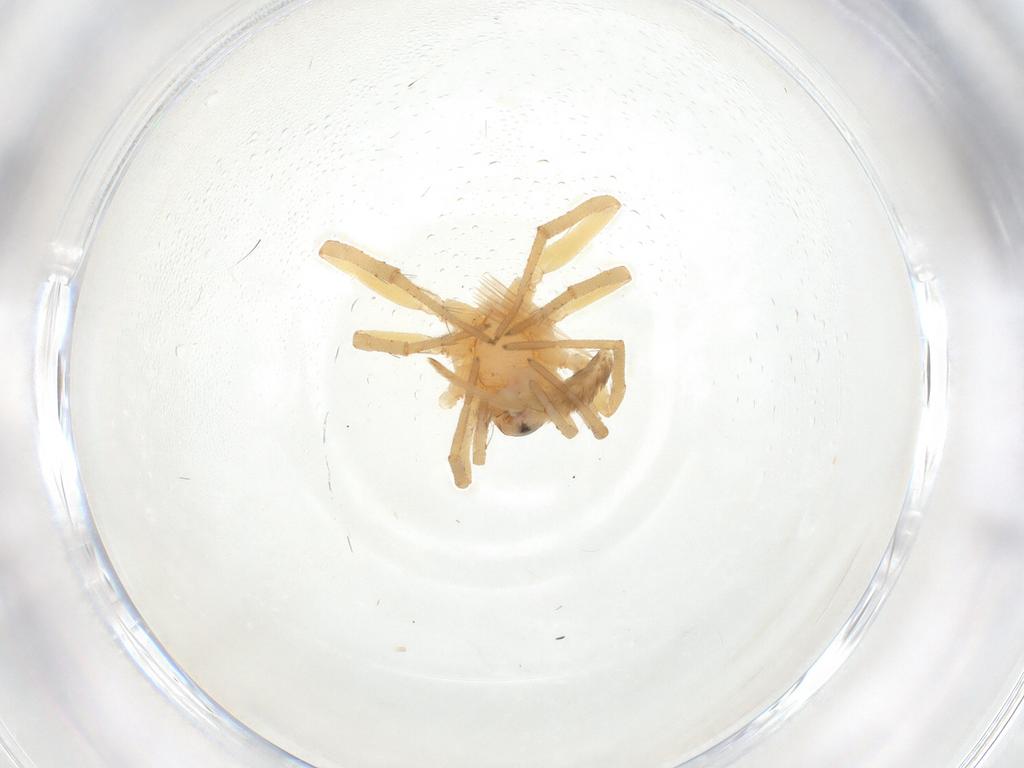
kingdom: Animalia
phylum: Arthropoda
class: Arachnida
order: Araneae
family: Gnaphosidae
